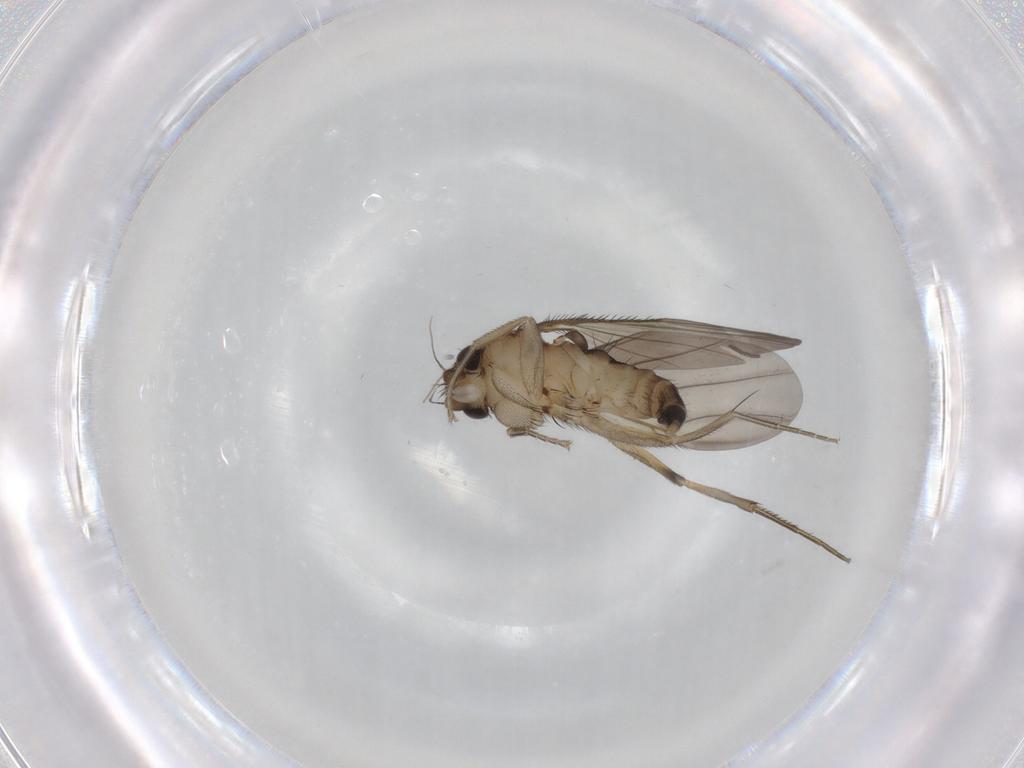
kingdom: Animalia
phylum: Arthropoda
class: Insecta
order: Diptera
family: Phoridae
